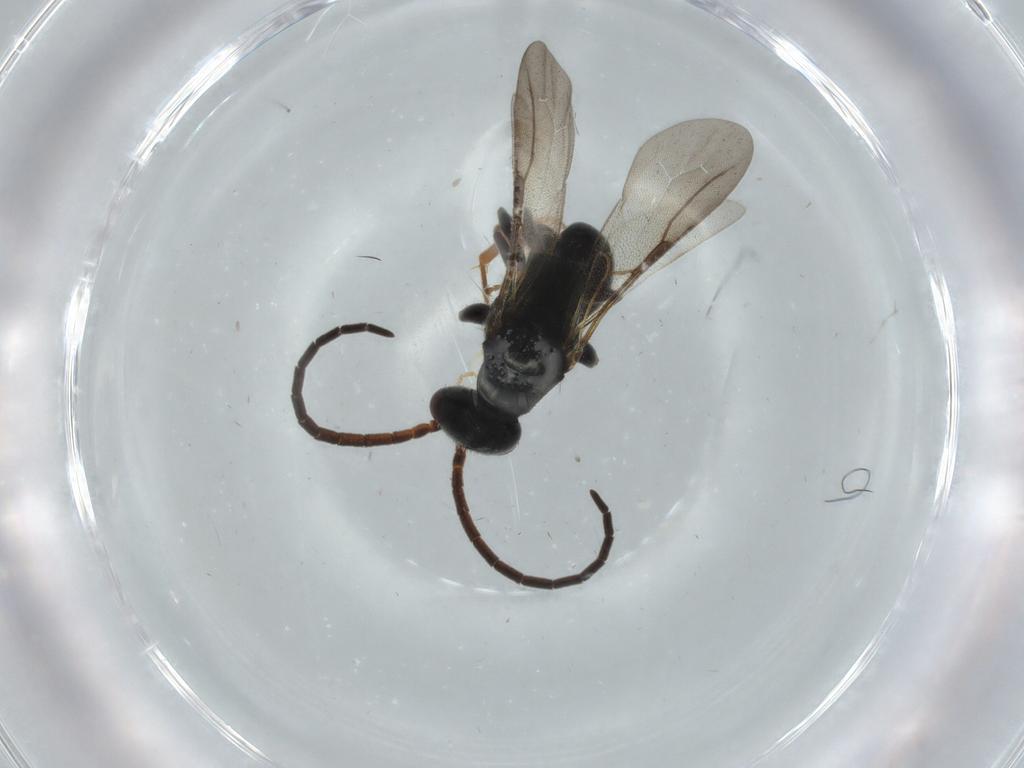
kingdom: Animalia
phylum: Arthropoda
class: Insecta
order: Hymenoptera
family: Bethylidae
